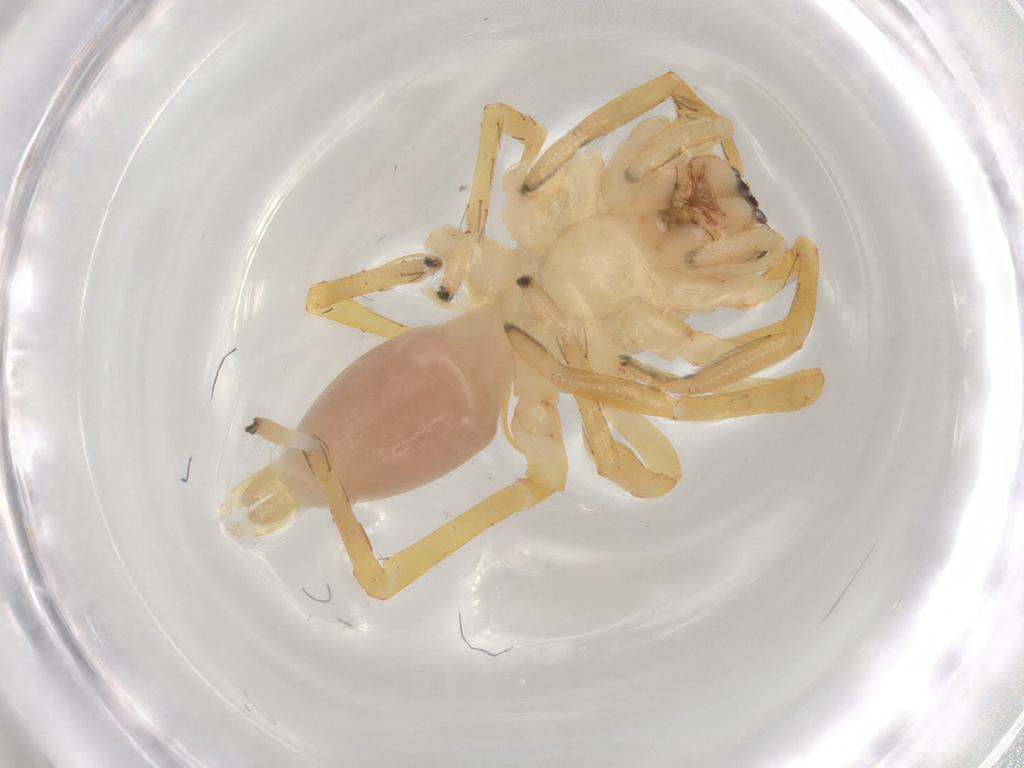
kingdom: Animalia
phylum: Arthropoda
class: Arachnida
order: Araneae
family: Clubionidae
